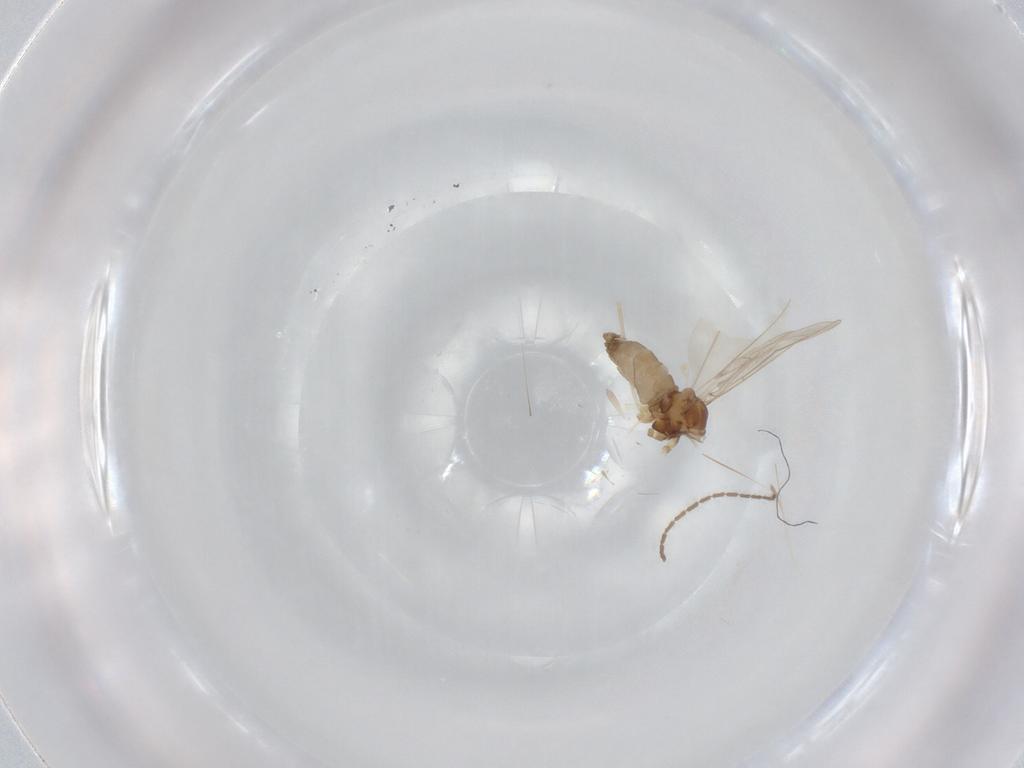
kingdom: Animalia
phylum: Arthropoda
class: Insecta
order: Diptera
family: Cecidomyiidae
